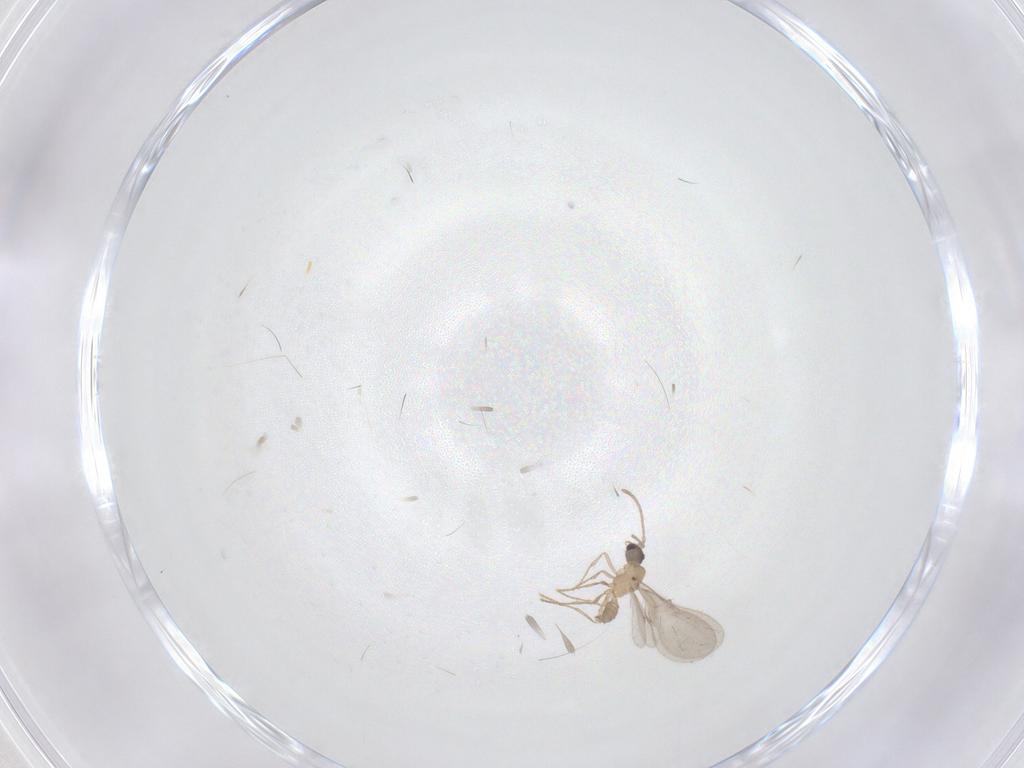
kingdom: Animalia
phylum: Arthropoda
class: Insecta
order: Hymenoptera
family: Formicidae
